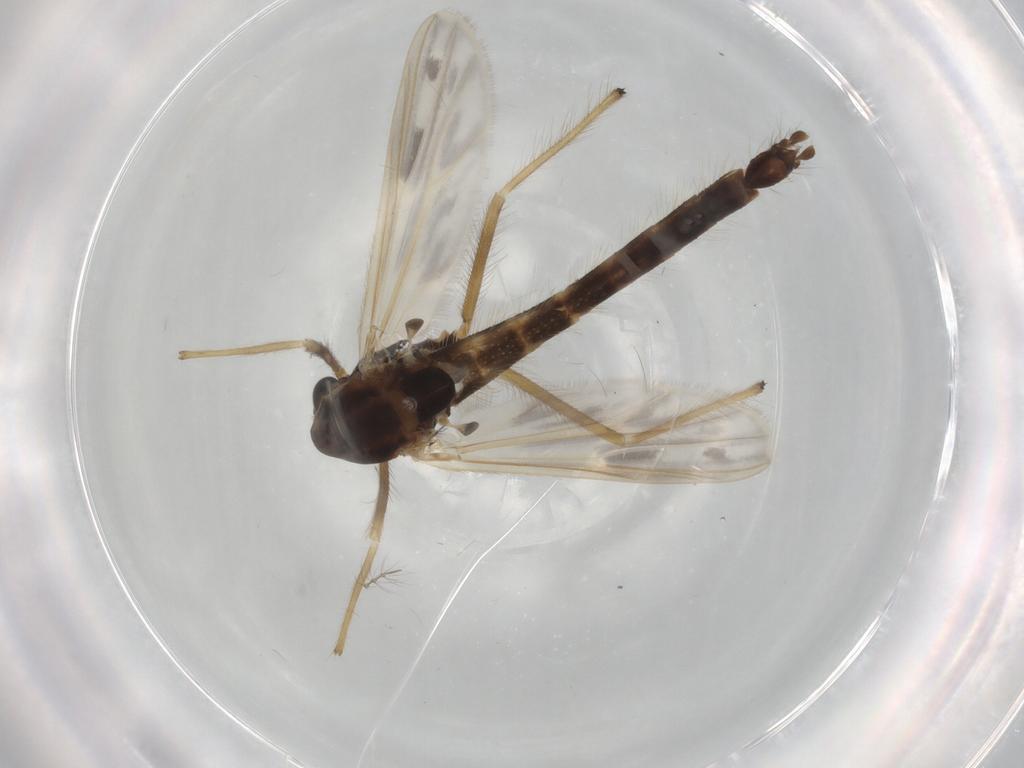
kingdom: Animalia
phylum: Arthropoda
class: Insecta
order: Diptera
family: Chironomidae
